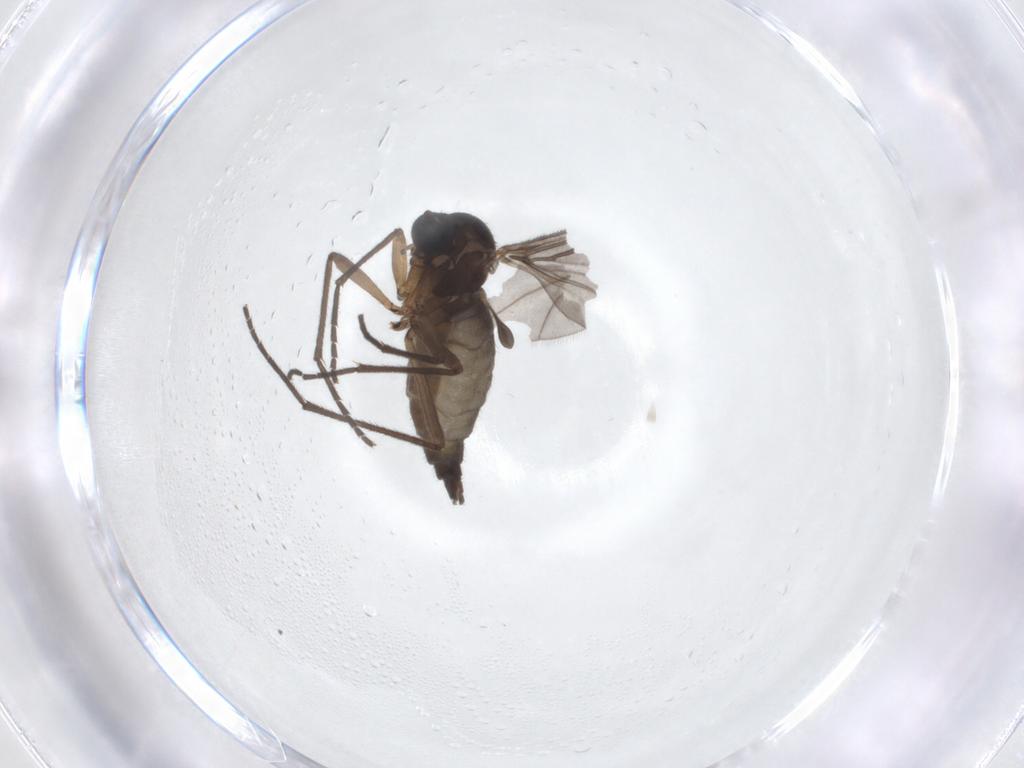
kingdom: Animalia
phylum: Arthropoda
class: Insecta
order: Diptera
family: Sciaridae
